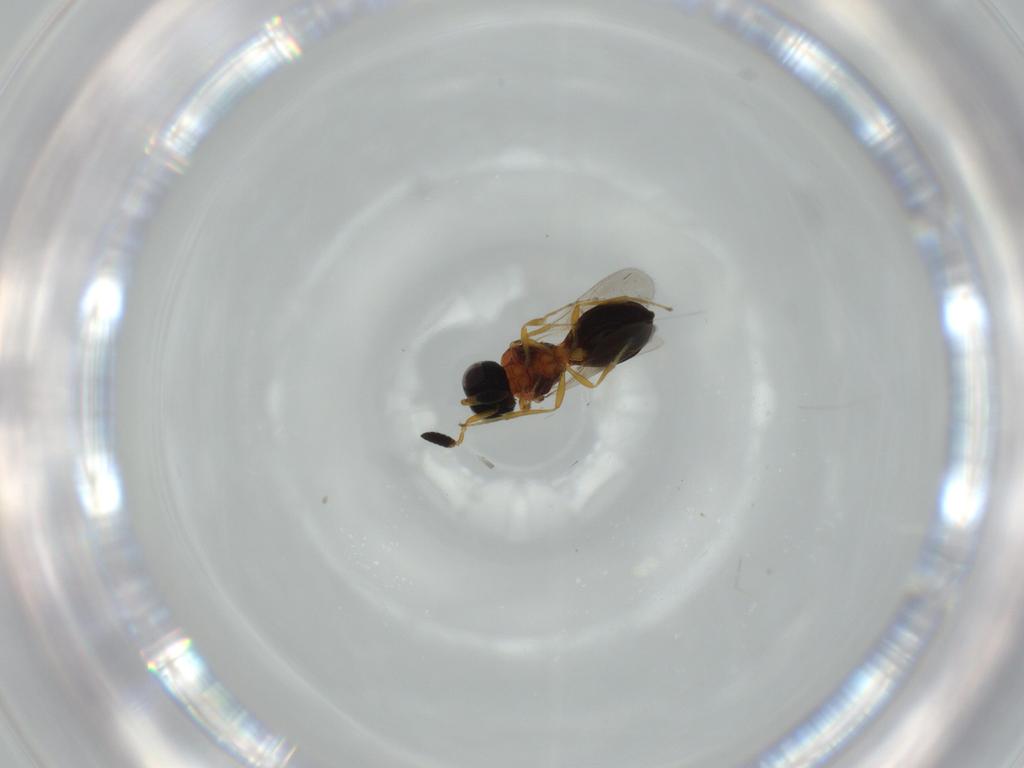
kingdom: Animalia
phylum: Arthropoda
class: Insecta
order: Hymenoptera
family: Scelionidae
